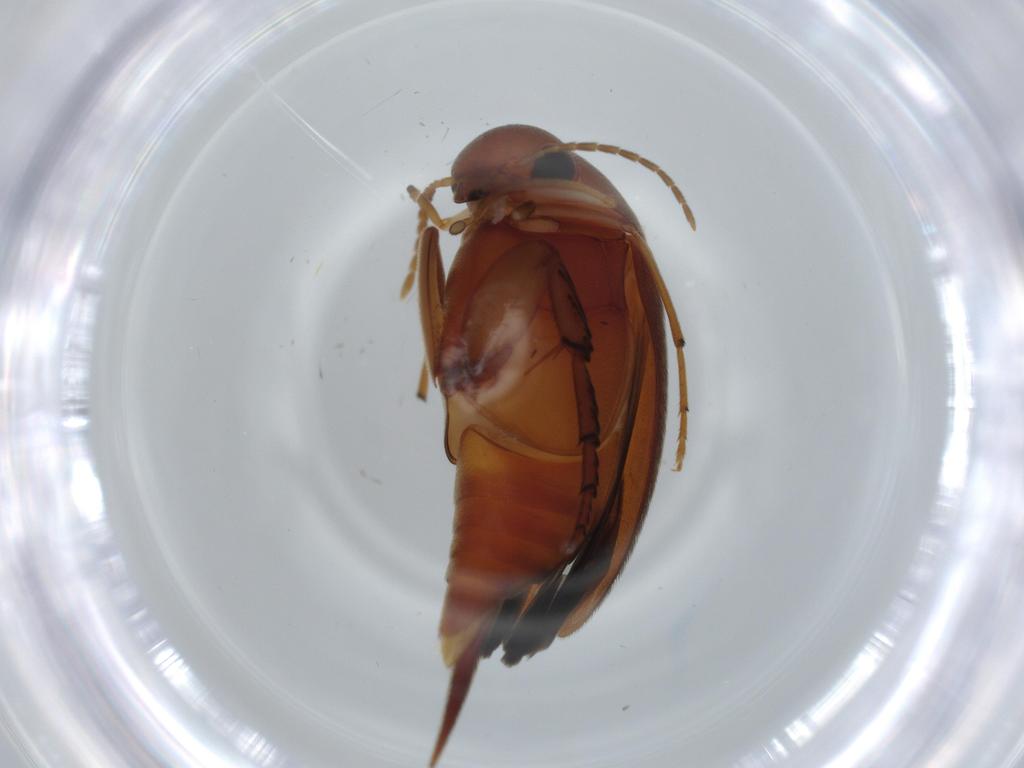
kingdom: Animalia
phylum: Arthropoda
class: Insecta
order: Coleoptera
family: Mordellidae
